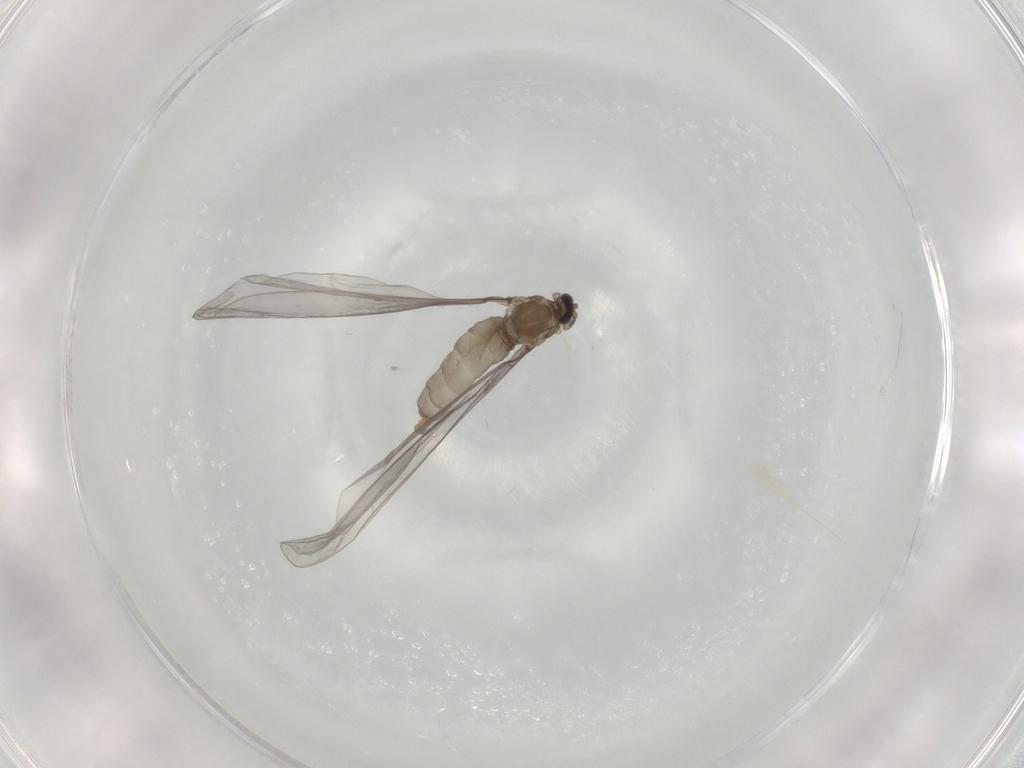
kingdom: Animalia
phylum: Arthropoda
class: Insecta
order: Diptera
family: Cecidomyiidae
